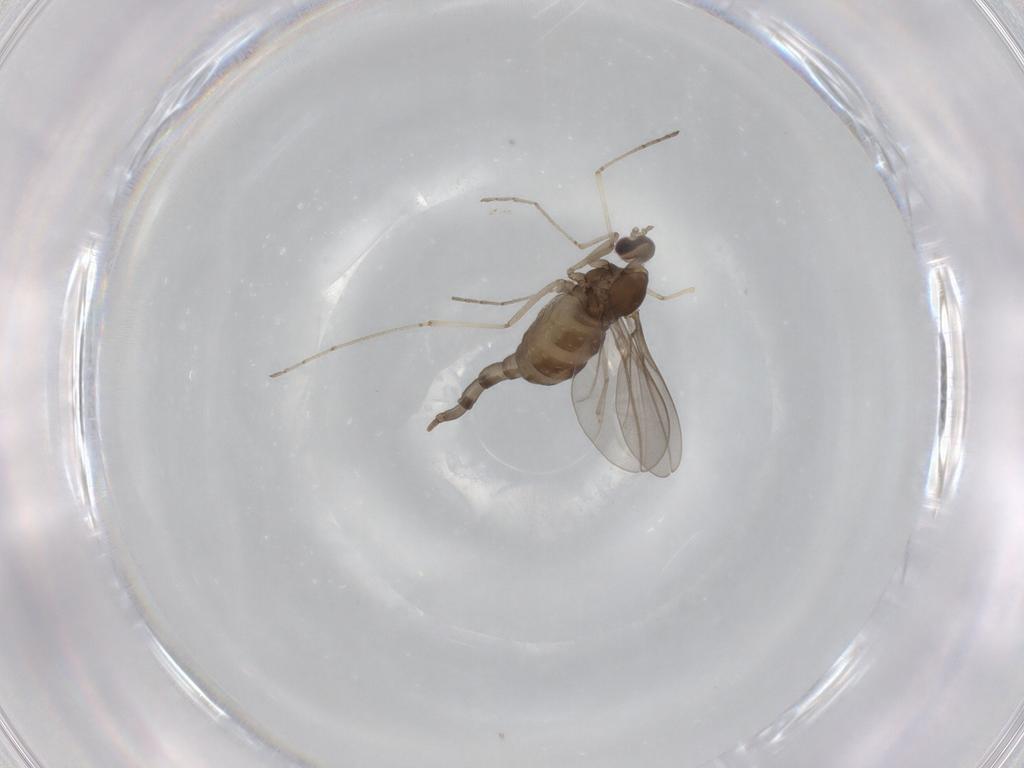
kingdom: Animalia
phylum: Arthropoda
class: Insecta
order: Diptera
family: Cecidomyiidae
